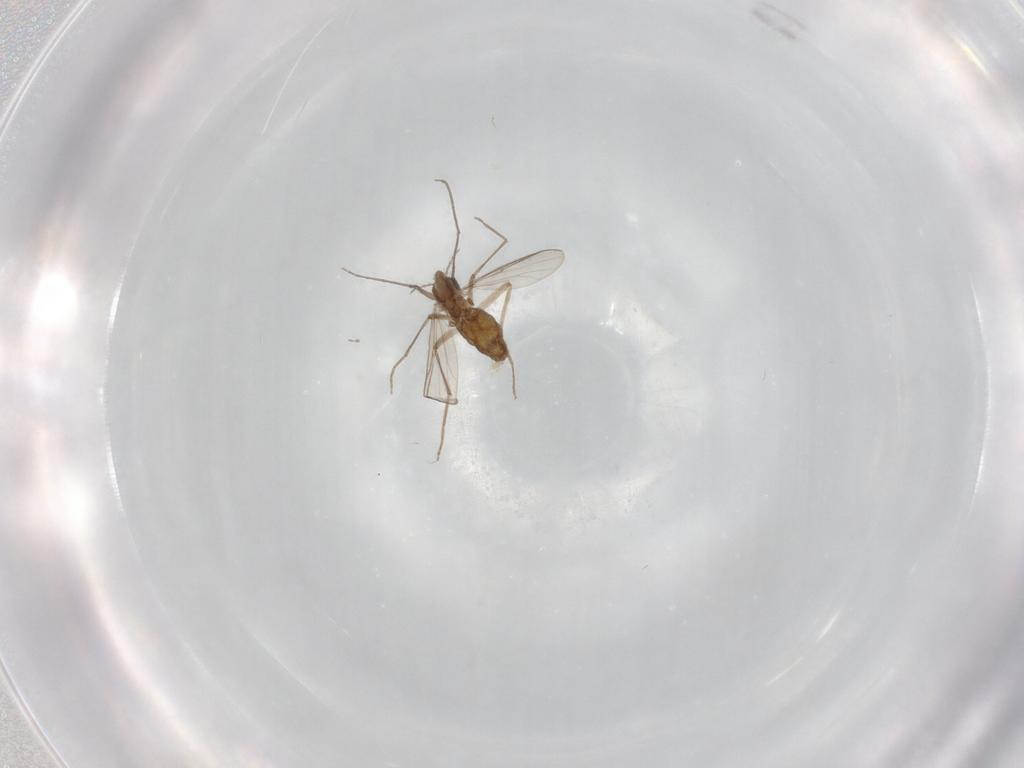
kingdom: Animalia
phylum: Arthropoda
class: Insecta
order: Diptera
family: Chironomidae
